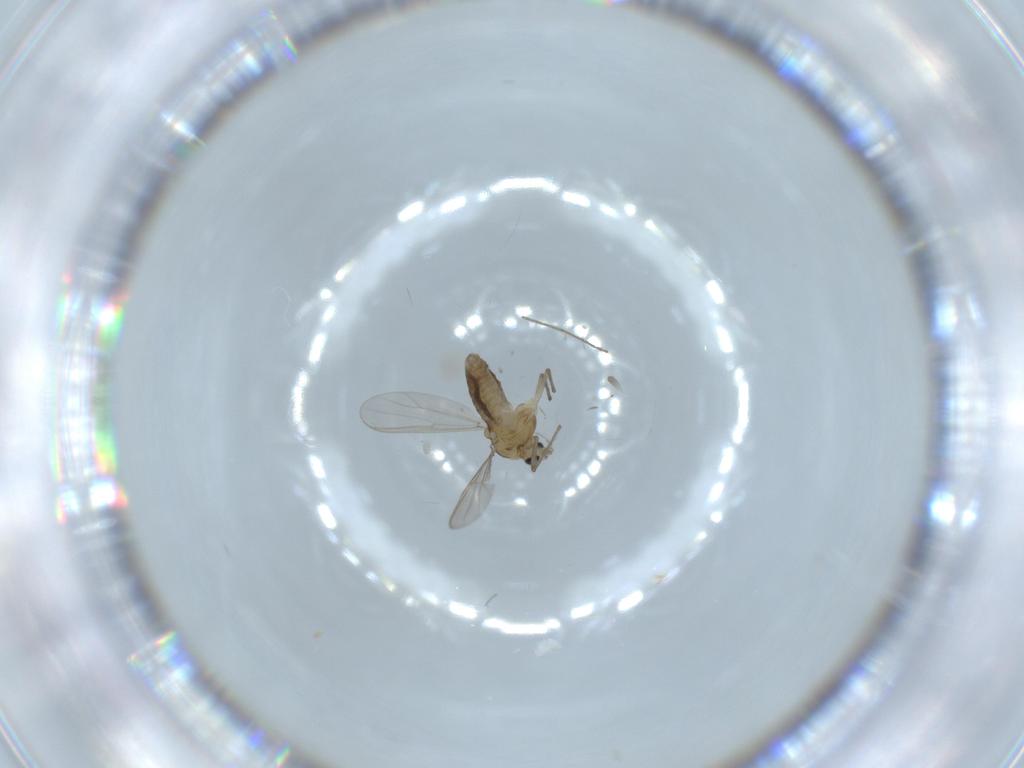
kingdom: Animalia
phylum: Arthropoda
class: Insecta
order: Diptera
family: Chironomidae
